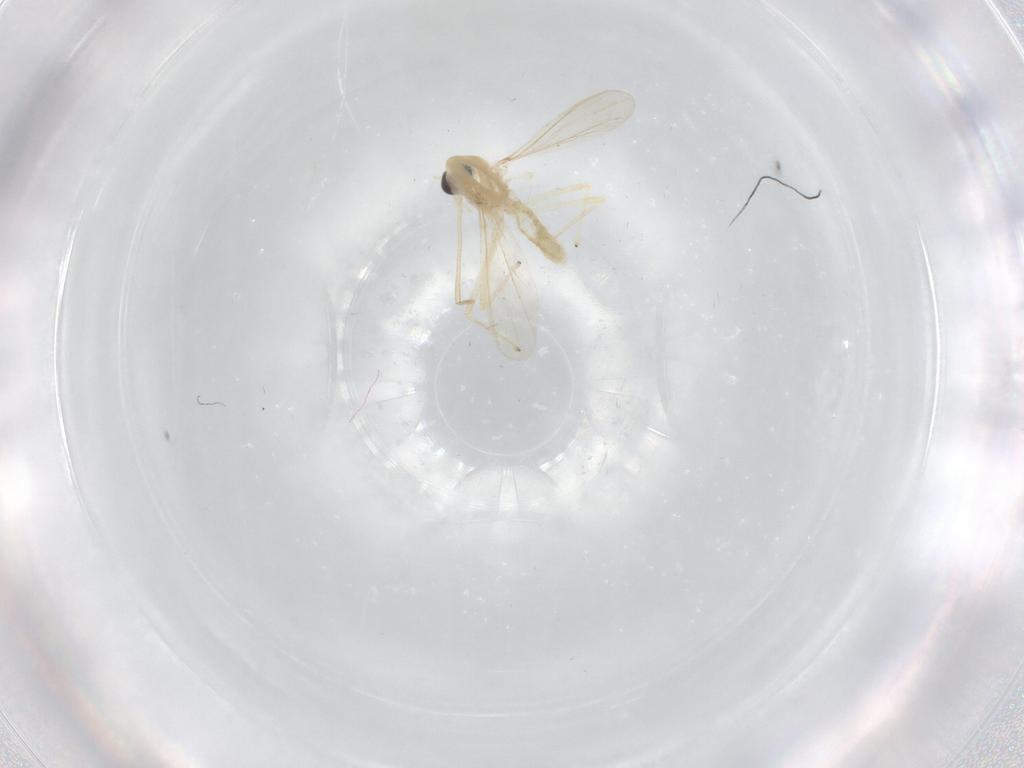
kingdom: Animalia
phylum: Arthropoda
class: Insecta
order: Diptera
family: Chironomidae
